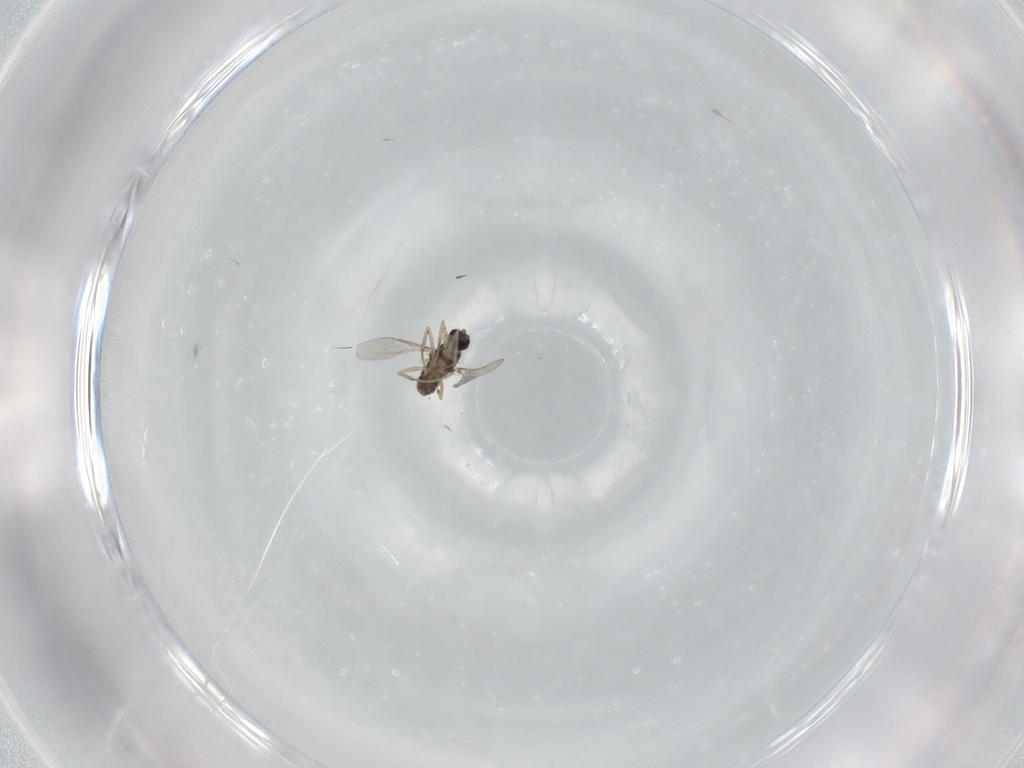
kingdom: Animalia
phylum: Arthropoda
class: Insecta
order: Diptera
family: Cecidomyiidae
